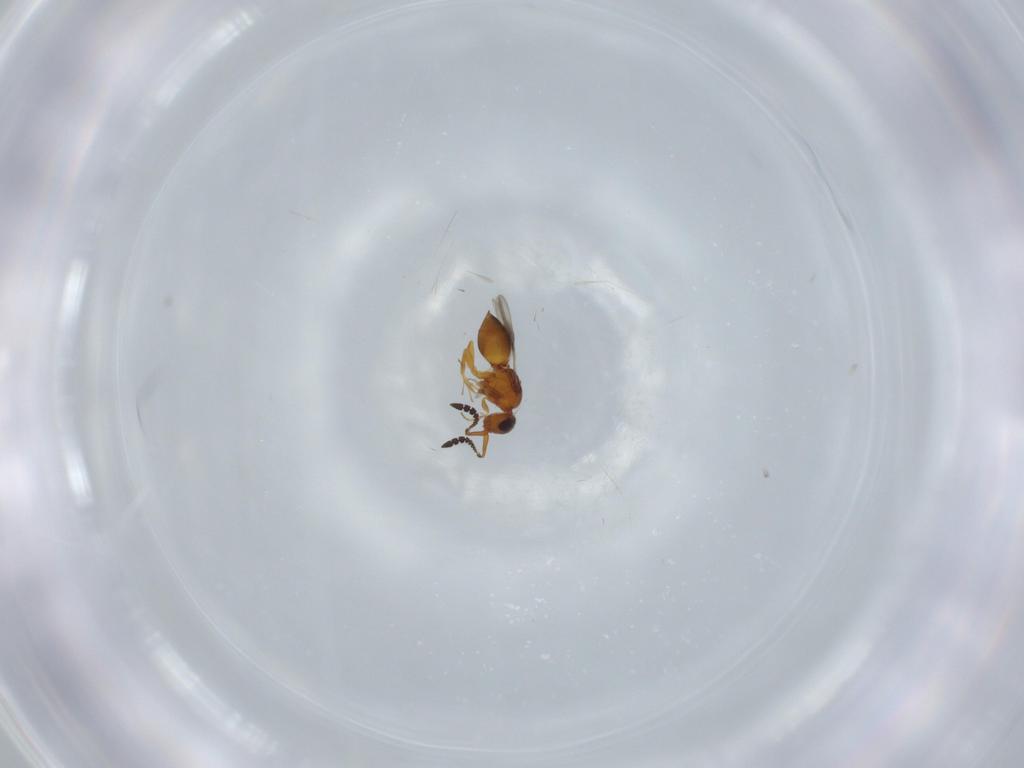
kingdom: Animalia
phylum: Arthropoda
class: Insecta
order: Hymenoptera
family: Ceraphronidae
